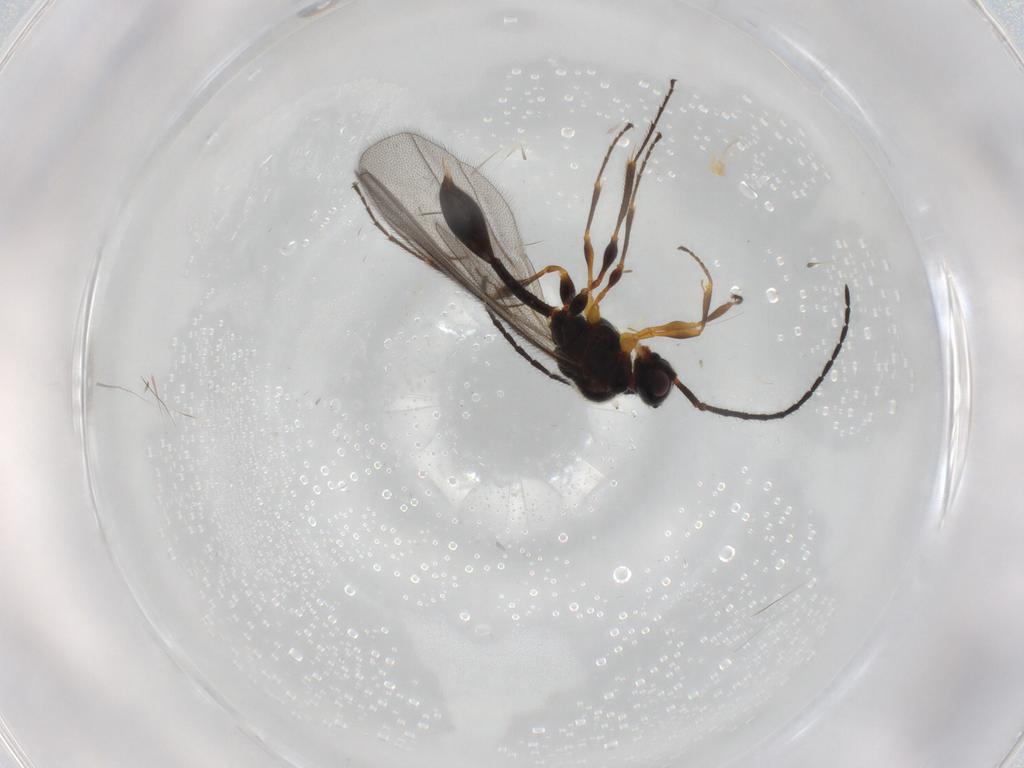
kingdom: Animalia
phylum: Arthropoda
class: Insecta
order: Hymenoptera
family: Diapriidae
